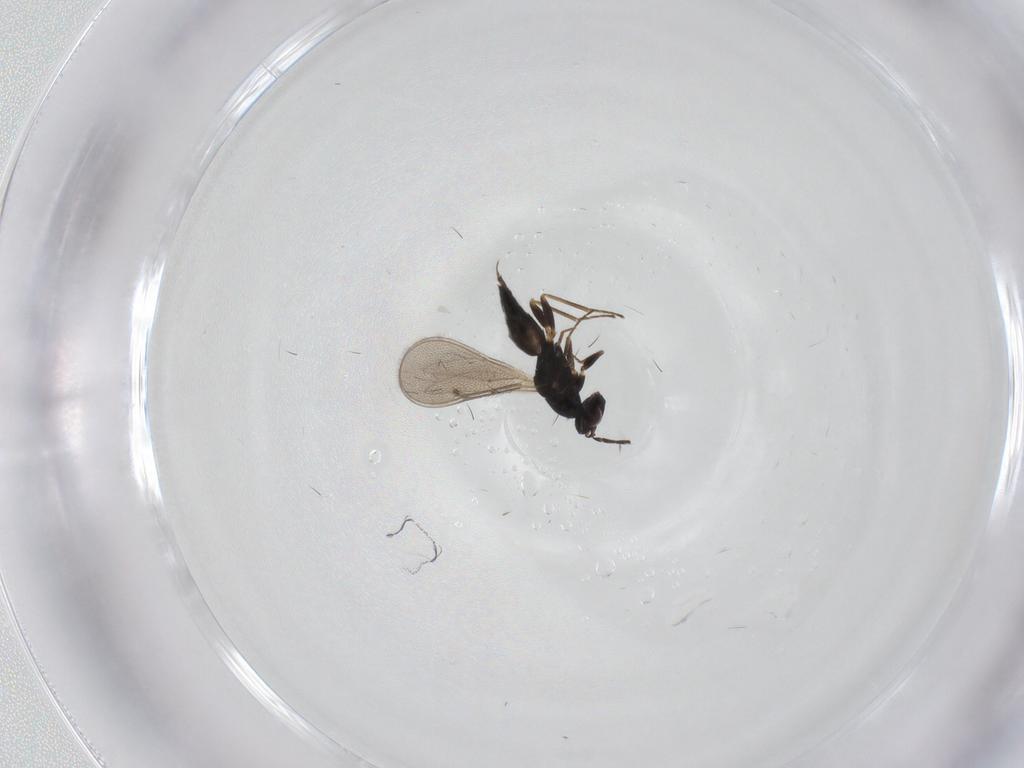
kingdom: Animalia
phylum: Arthropoda
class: Insecta
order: Hymenoptera
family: Eulophidae
